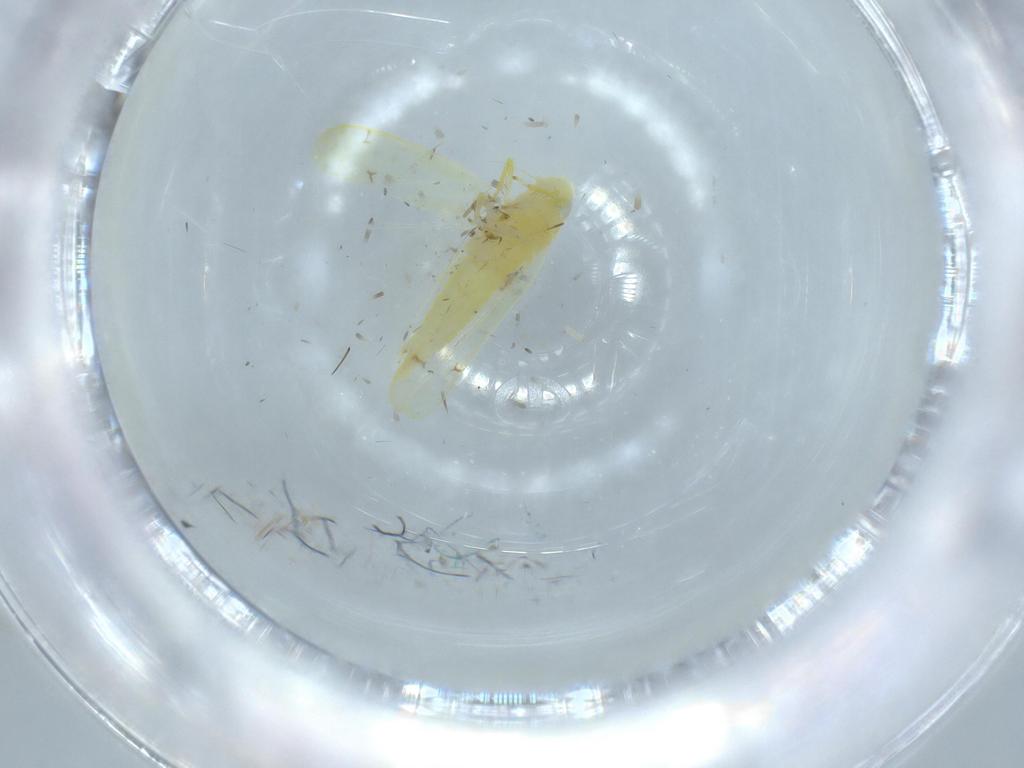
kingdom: Animalia
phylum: Arthropoda
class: Insecta
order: Hemiptera
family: Cicadellidae
